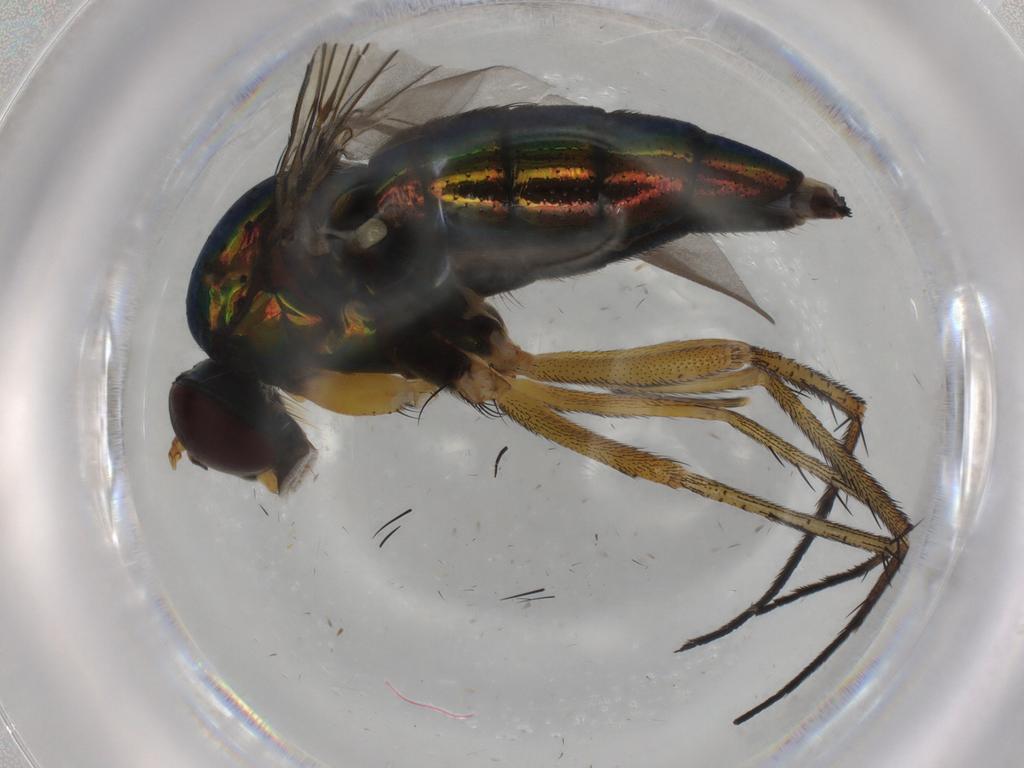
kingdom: Animalia
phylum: Arthropoda
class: Insecta
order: Diptera
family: Dolichopodidae
